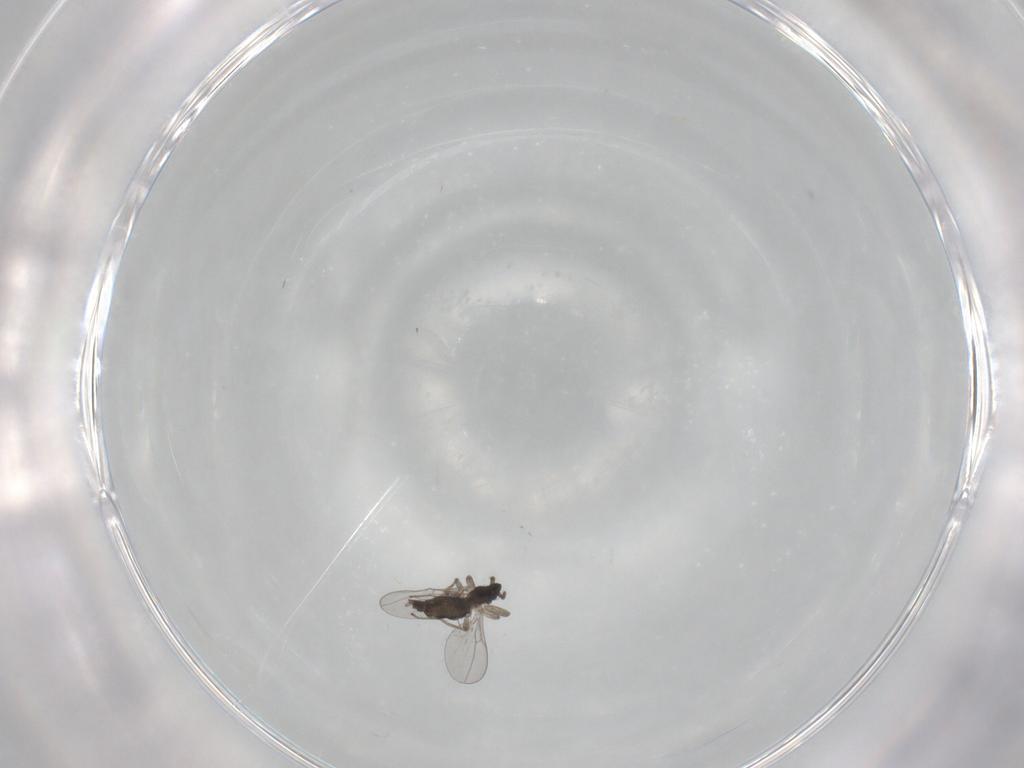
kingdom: Animalia
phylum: Arthropoda
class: Insecta
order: Diptera
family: Cecidomyiidae
